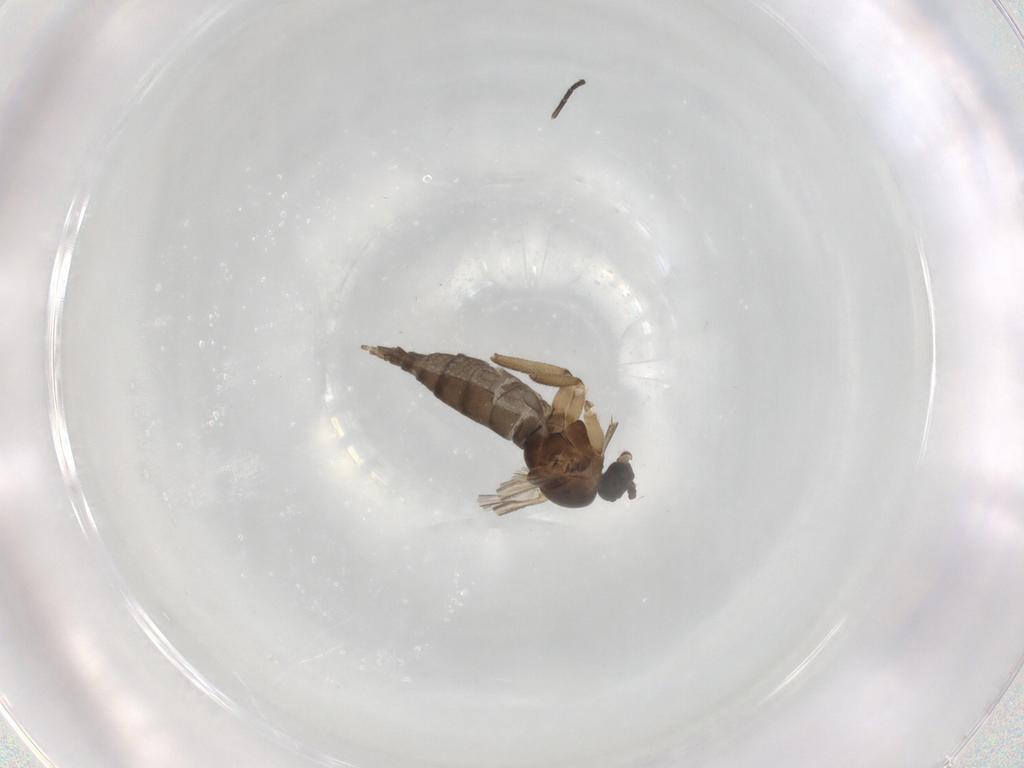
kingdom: Animalia
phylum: Arthropoda
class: Insecta
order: Diptera
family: Sciaridae
